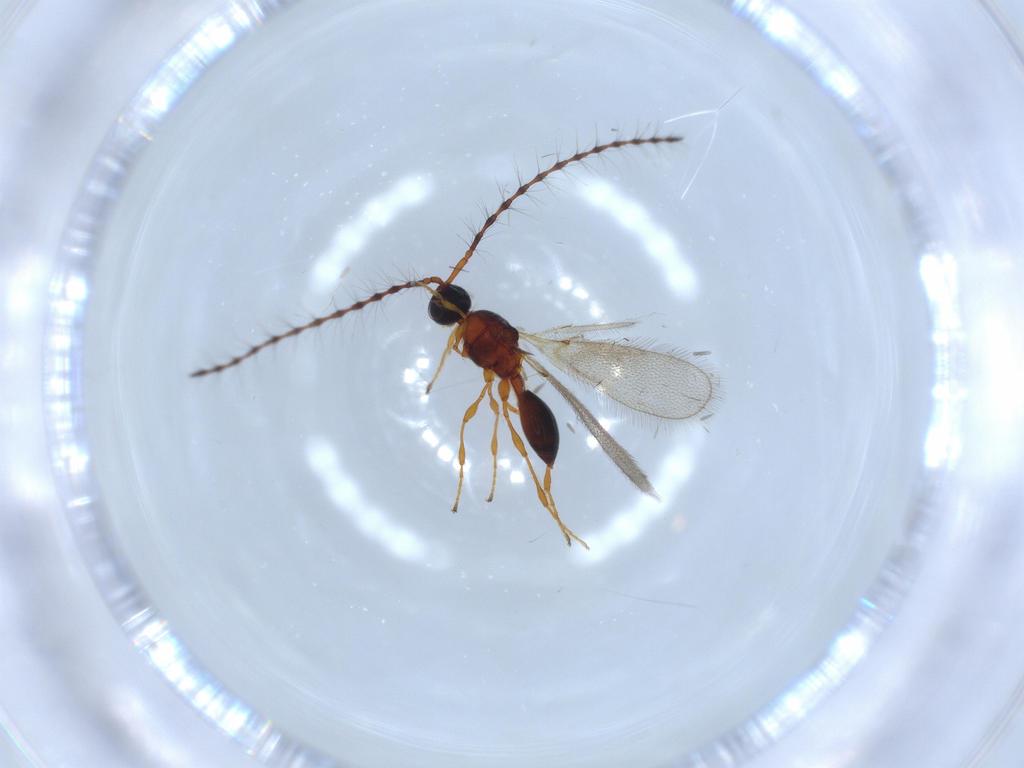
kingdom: Animalia
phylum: Arthropoda
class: Insecta
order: Hymenoptera
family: Diapriidae
